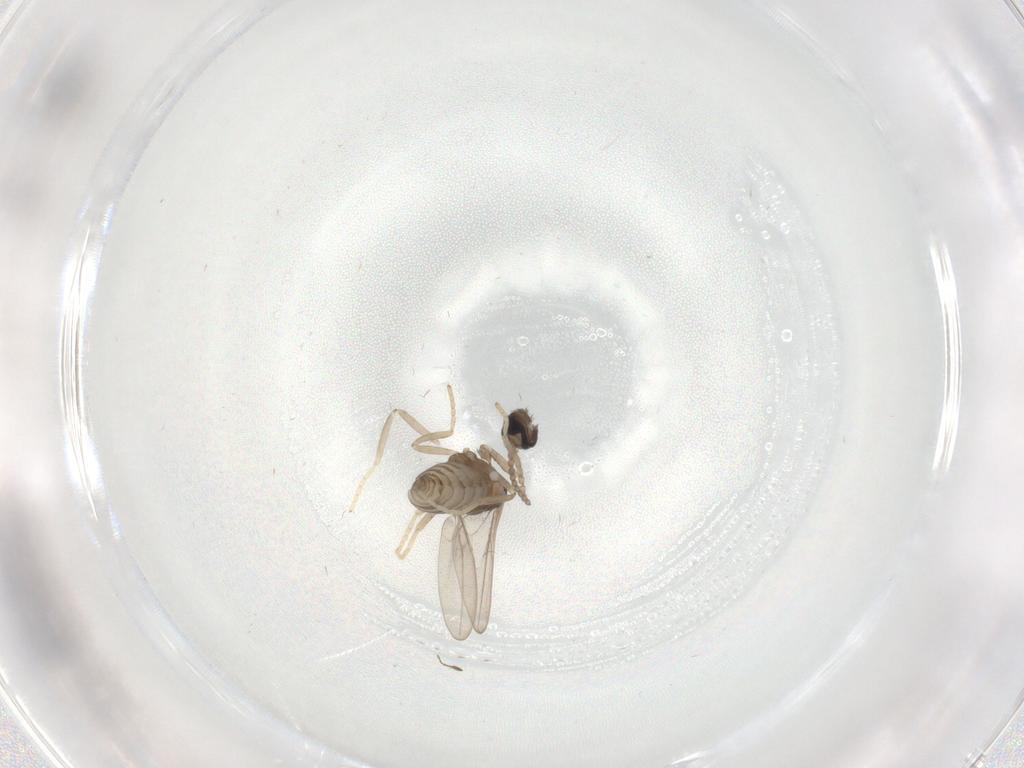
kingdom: Animalia
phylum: Arthropoda
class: Insecta
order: Diptera
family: Cecidomyiidae
